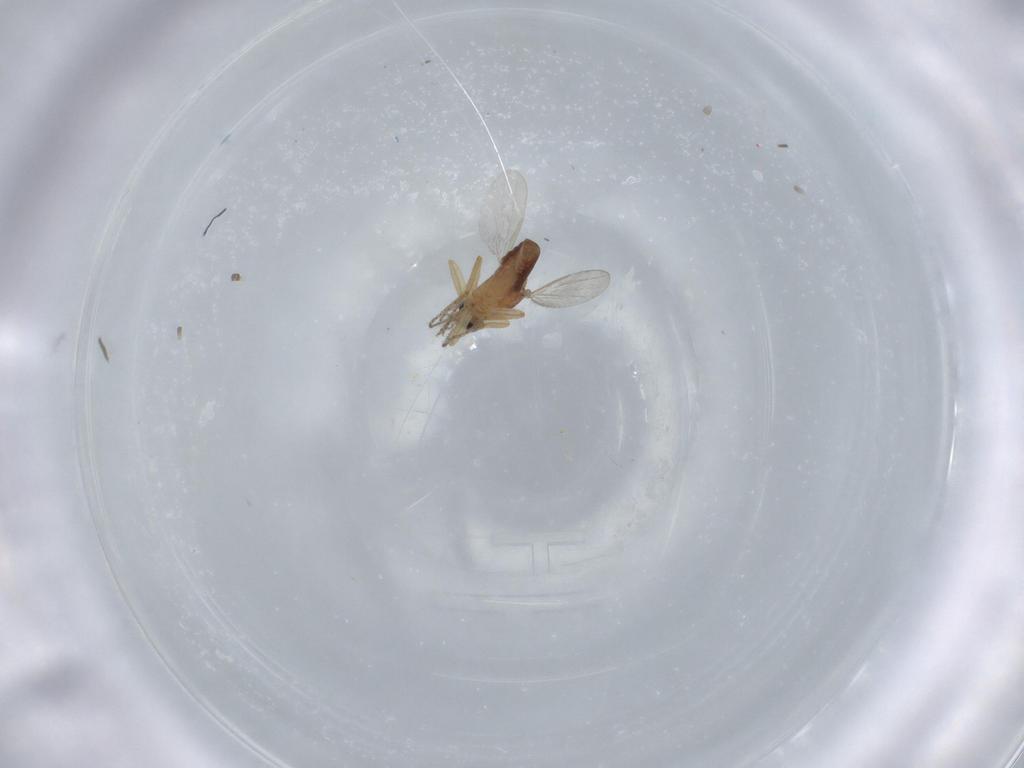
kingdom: Animalia
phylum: Arthropoda
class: Insecta
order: Diptera
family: Ceratopogonidae
